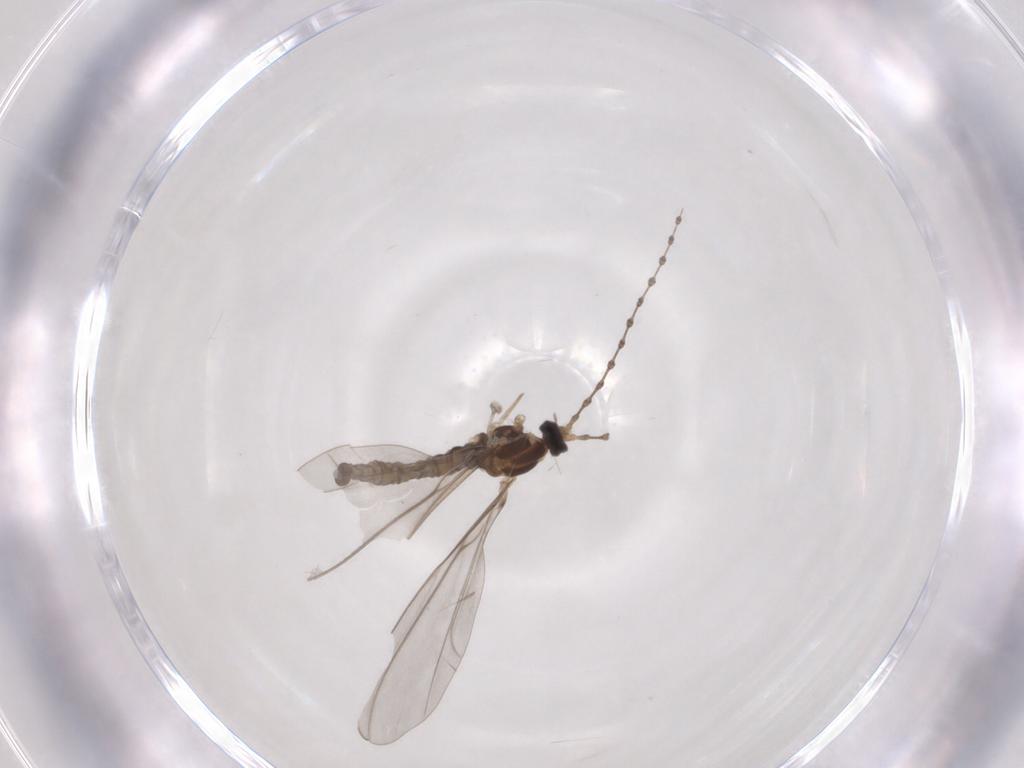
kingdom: Animalia
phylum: Arthropoda
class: Insecta
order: Diptera
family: Cecidomyiidae
